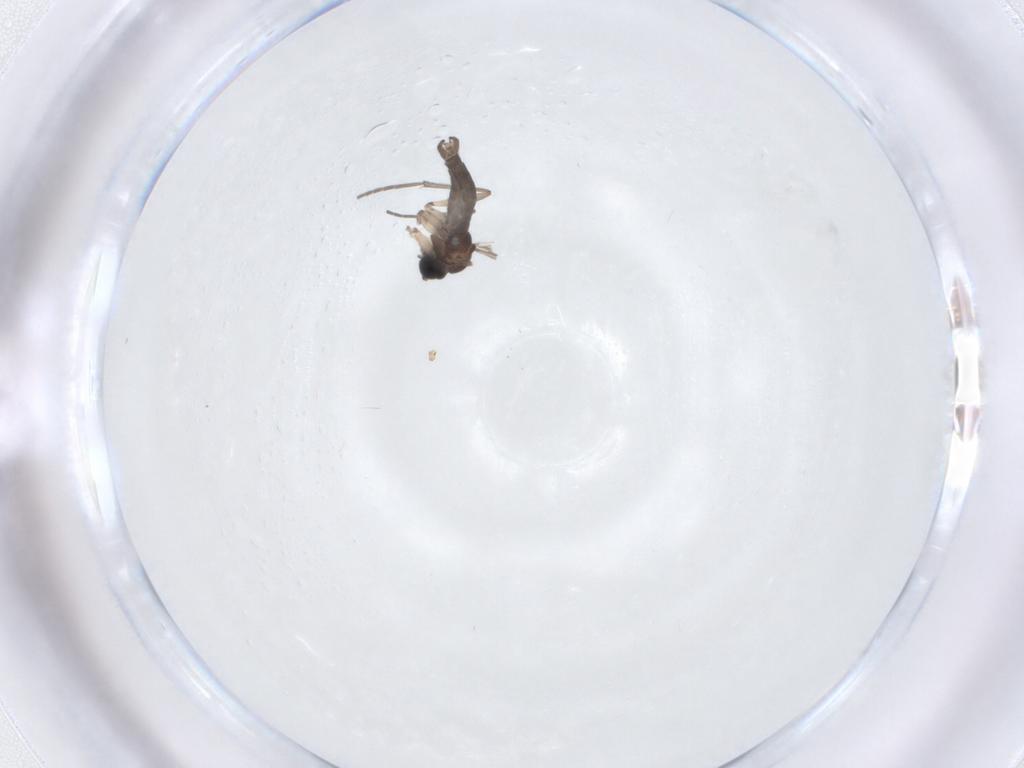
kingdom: Animalia
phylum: Arthropoda
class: Insecta
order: Diptera
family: Sciaridae
